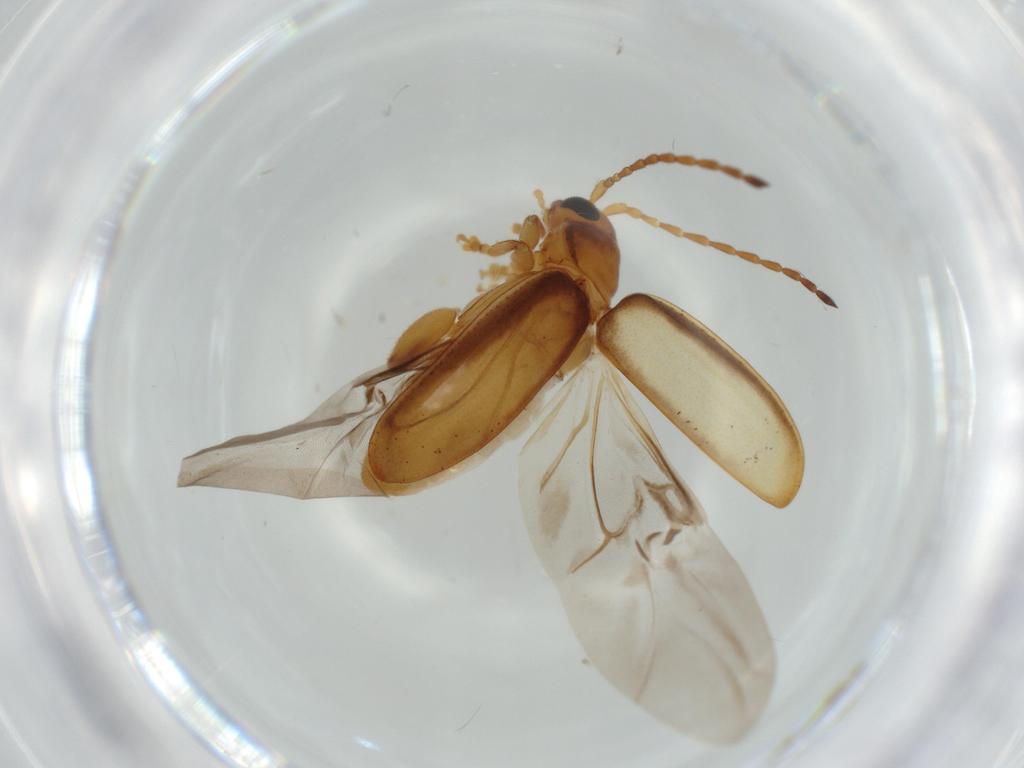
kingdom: Animalia
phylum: Arthropoda
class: Insecta
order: Coleoptera
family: Chrysomelidae
